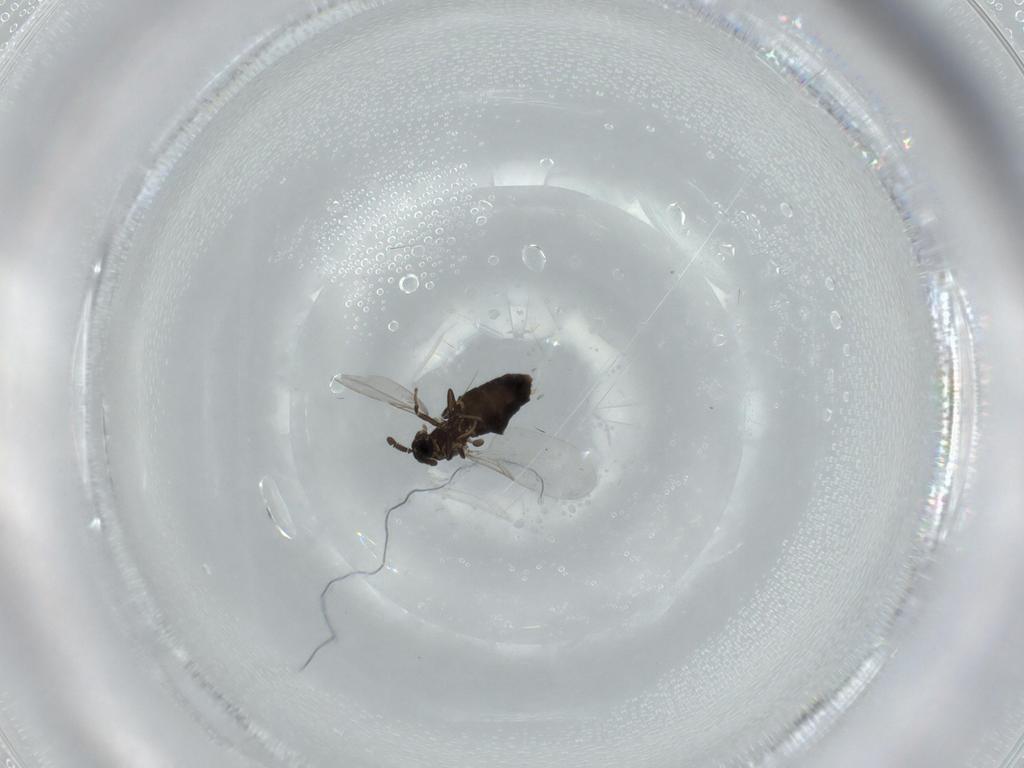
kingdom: Animalia
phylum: Arthropoda
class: Insecta
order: Diptera
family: Scatopsidae
